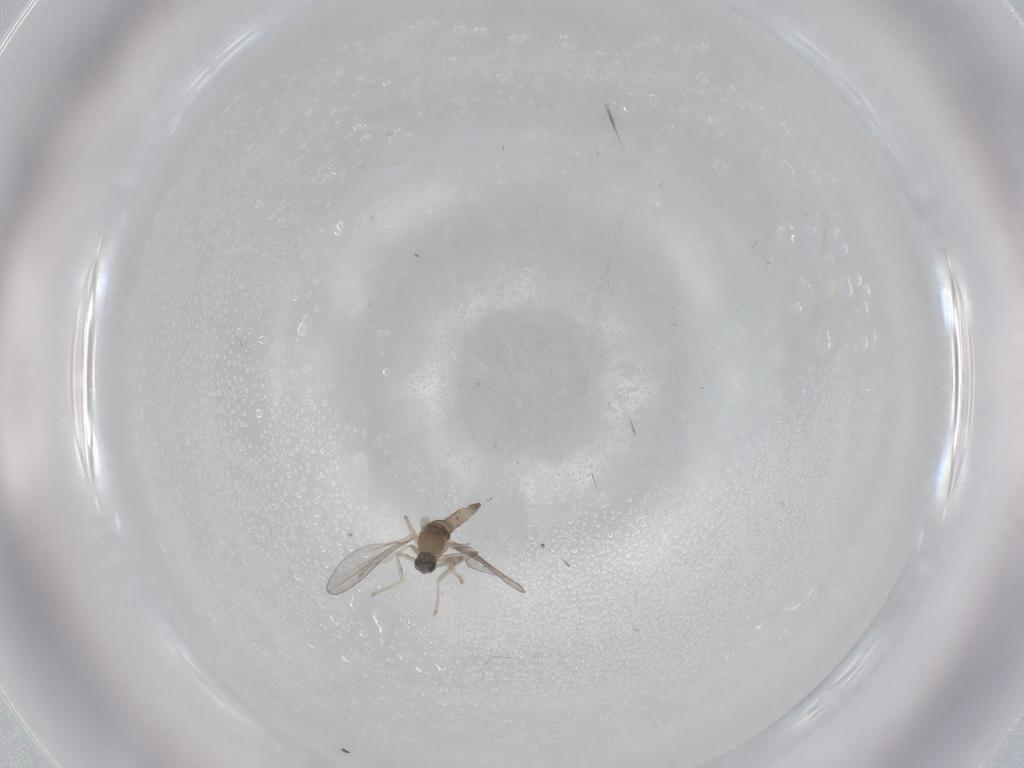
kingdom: Animalia
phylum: Arthropoda
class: Insecta
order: Diptera
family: Cecidomyiidae
